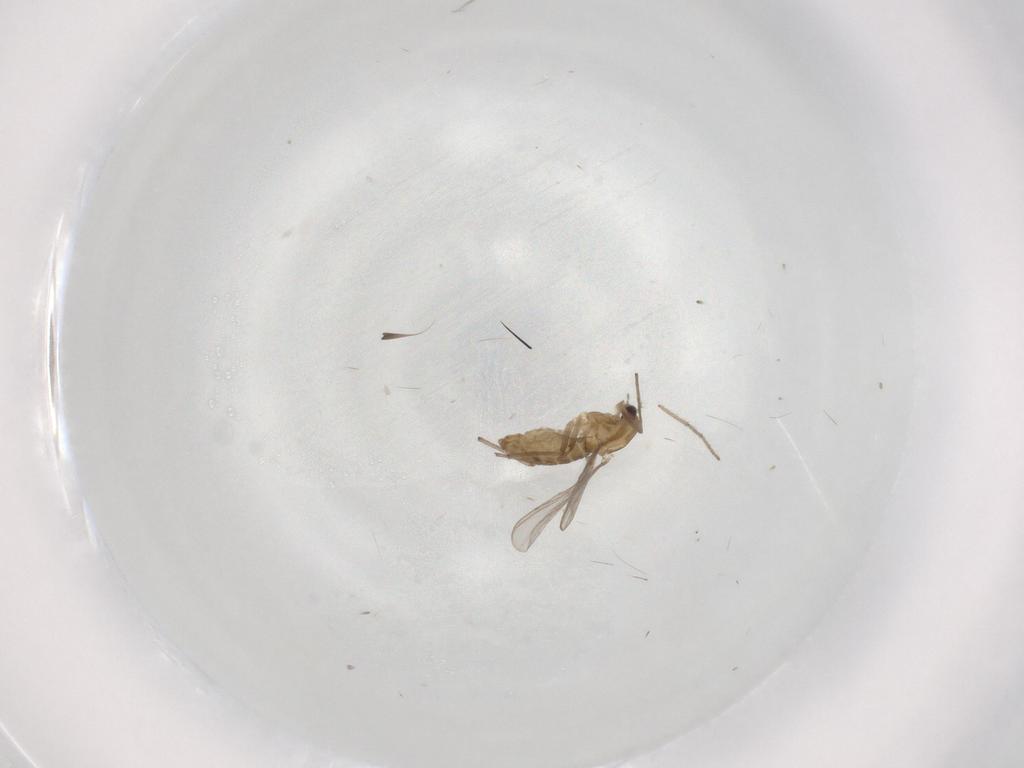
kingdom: Animalia
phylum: Arthropoda
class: Insecta
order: Diptera
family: Chironomidae
